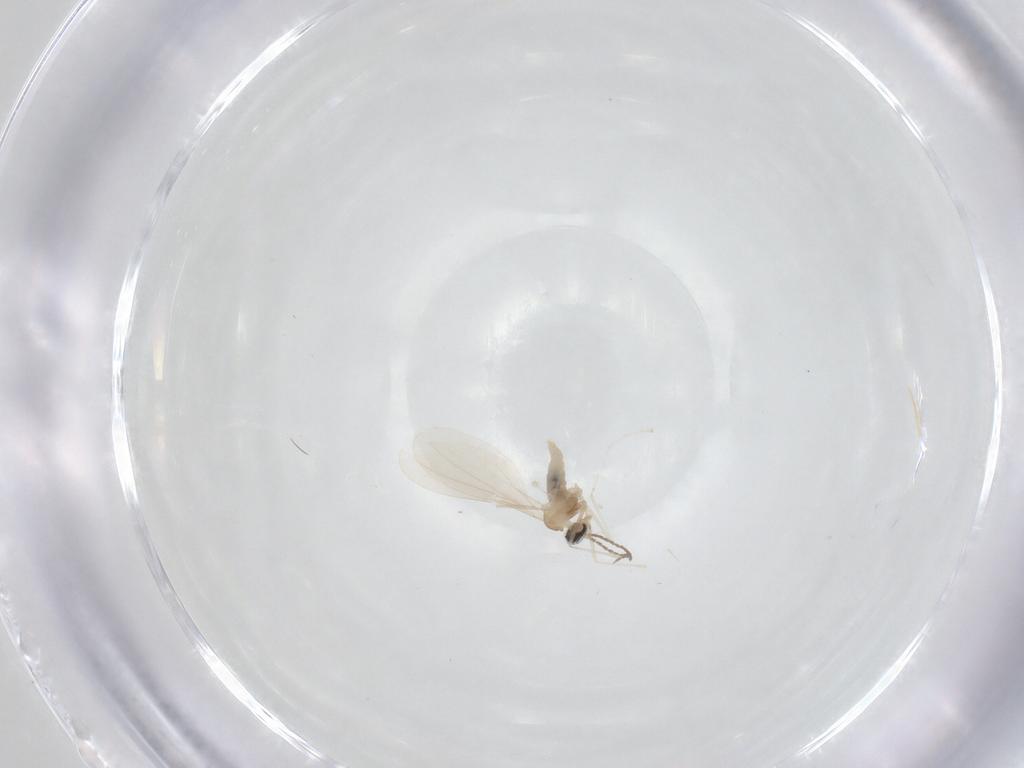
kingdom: Animalia
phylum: Arthropoda
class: Insecta
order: Diptera
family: Cecidomyiidae
